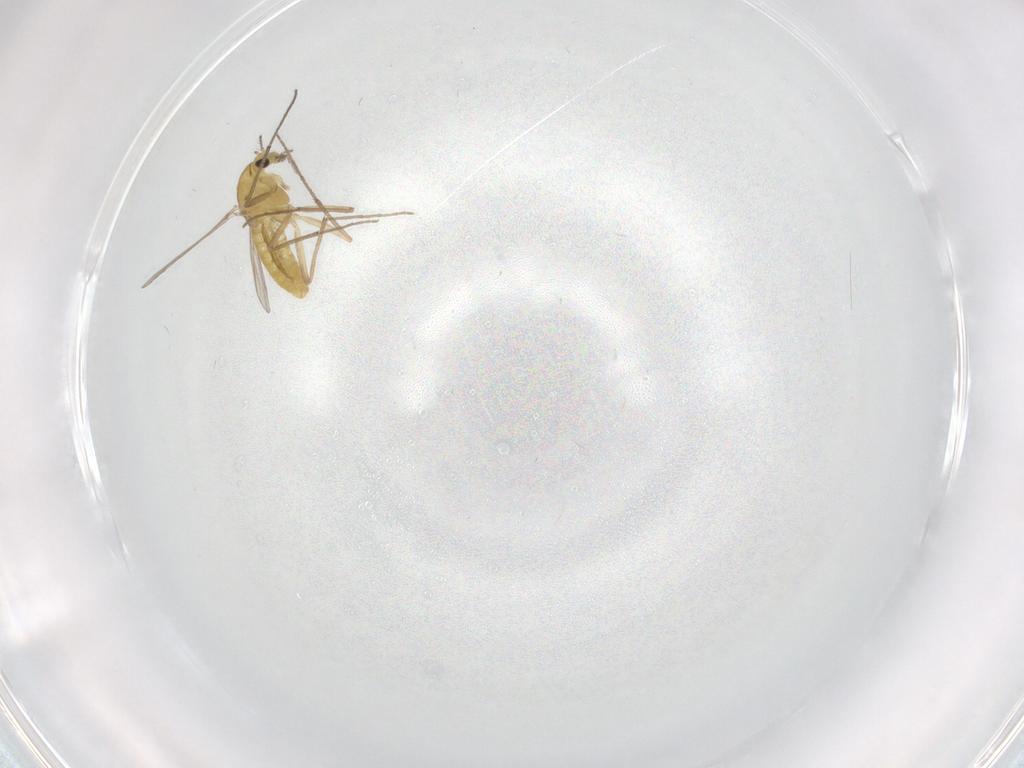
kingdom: Animalia
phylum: Arthropoda
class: Insecta
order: Diptera
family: Chironomidae
